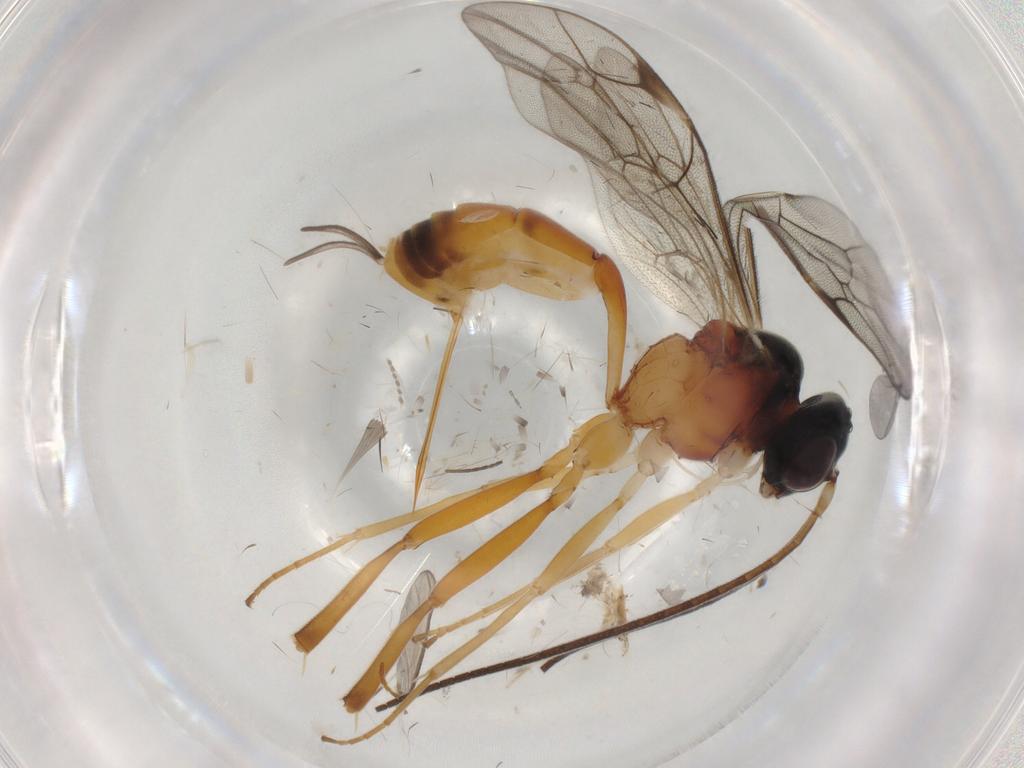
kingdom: Animalia
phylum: Arthropoda
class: Insecta
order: Hymenoptera
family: Ichneumonidae
